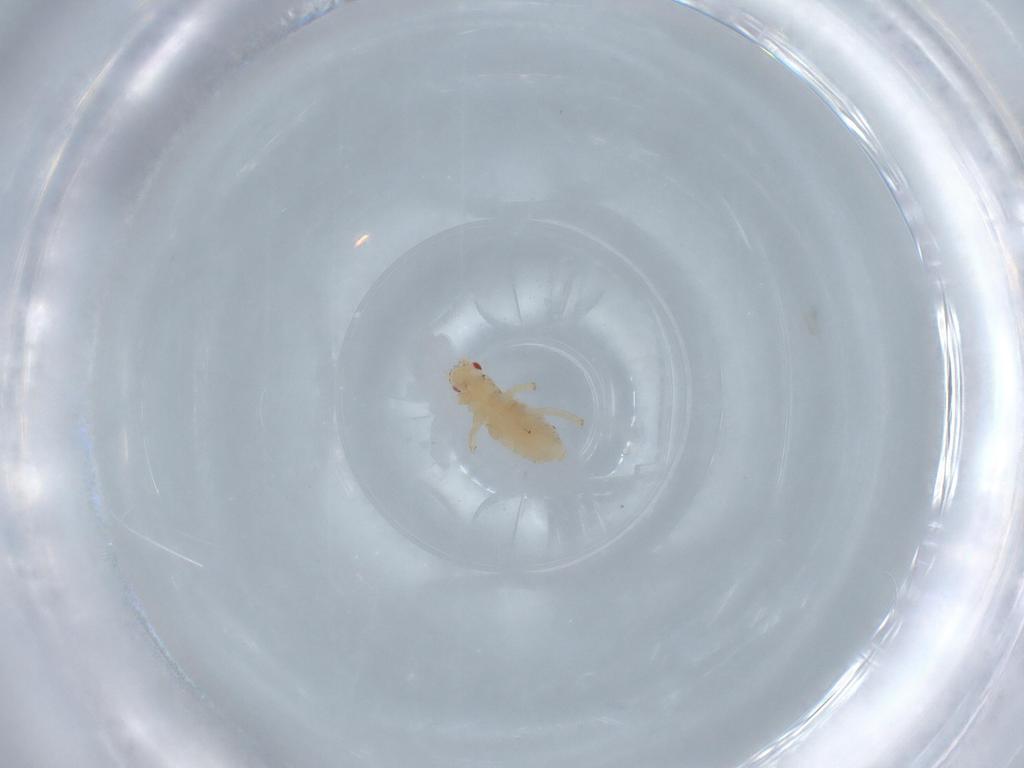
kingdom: Animalia
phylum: Arthropoda
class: Insecta
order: Hemiptera
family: Aphididae
